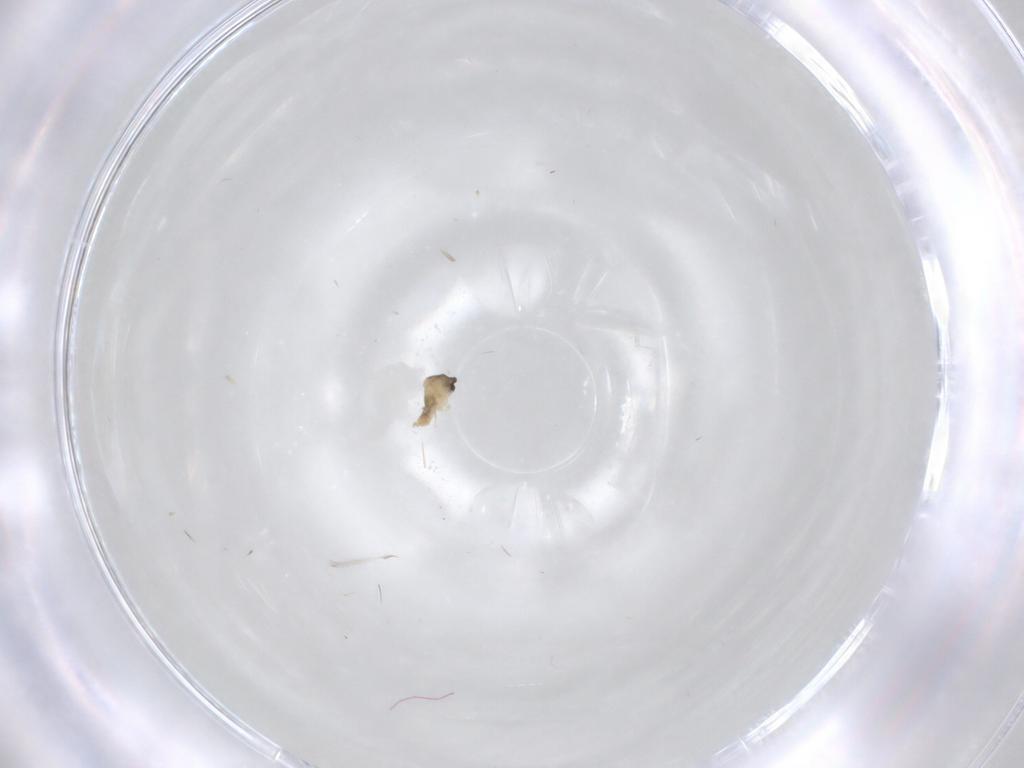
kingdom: Animalia
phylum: Arthropoda
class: Insecta
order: Diptera
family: Cecidomyiidae
